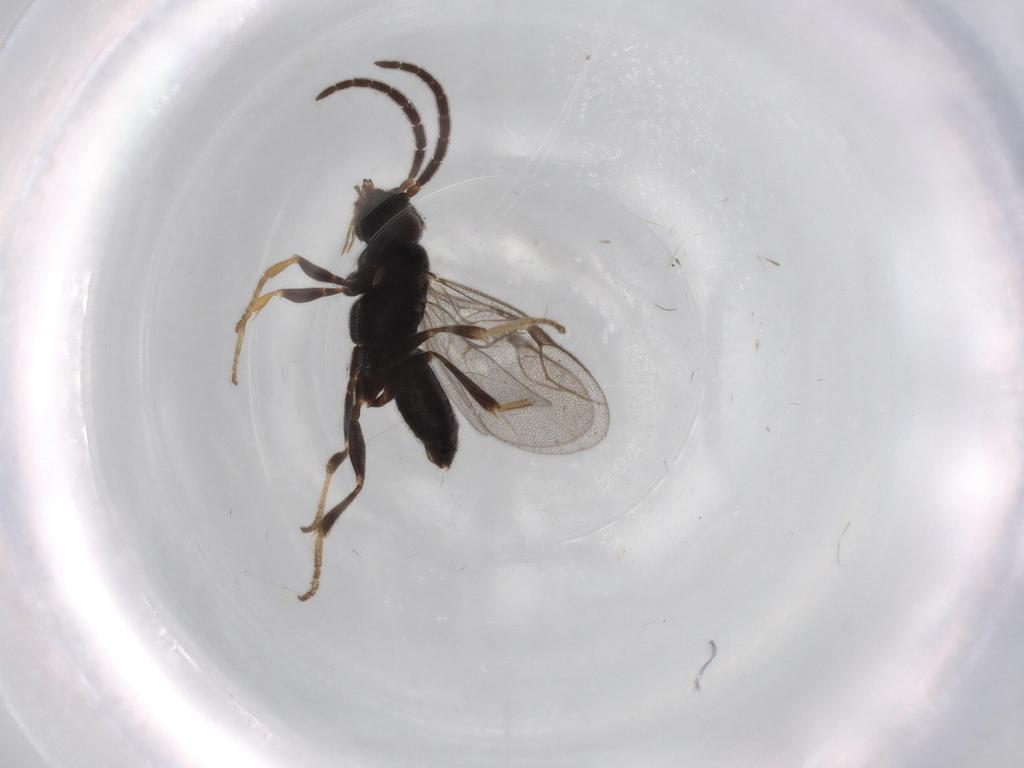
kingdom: Animalia
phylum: Arthropoda
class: Insecta
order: Hymenoptera
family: Dryinidae
